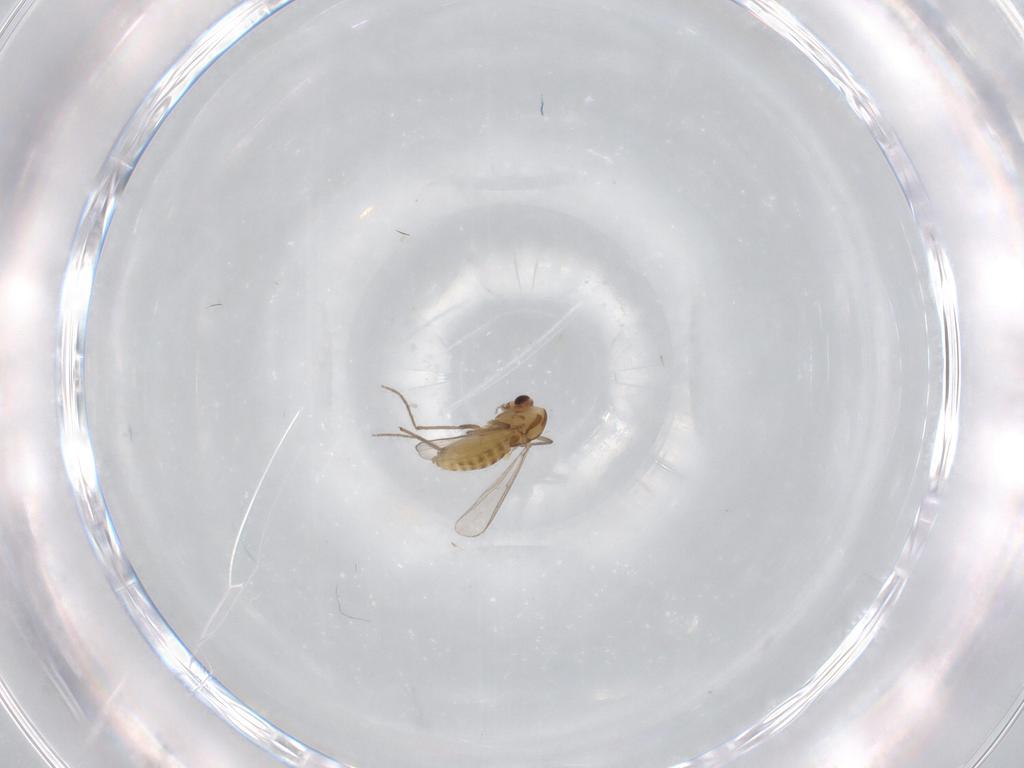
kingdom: Animalia
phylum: Arthropoda
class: Insecta
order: Diptera
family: Chironomidae
